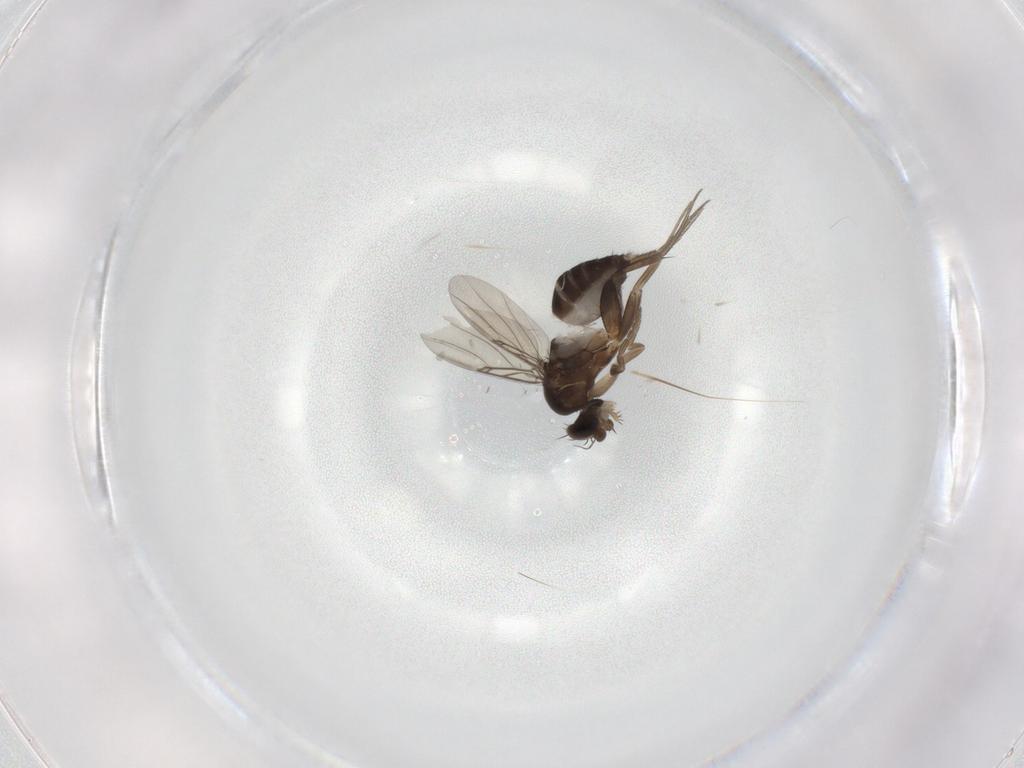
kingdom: Animalia
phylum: Arthropoda
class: Insecta
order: Diptera
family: Phoridae
